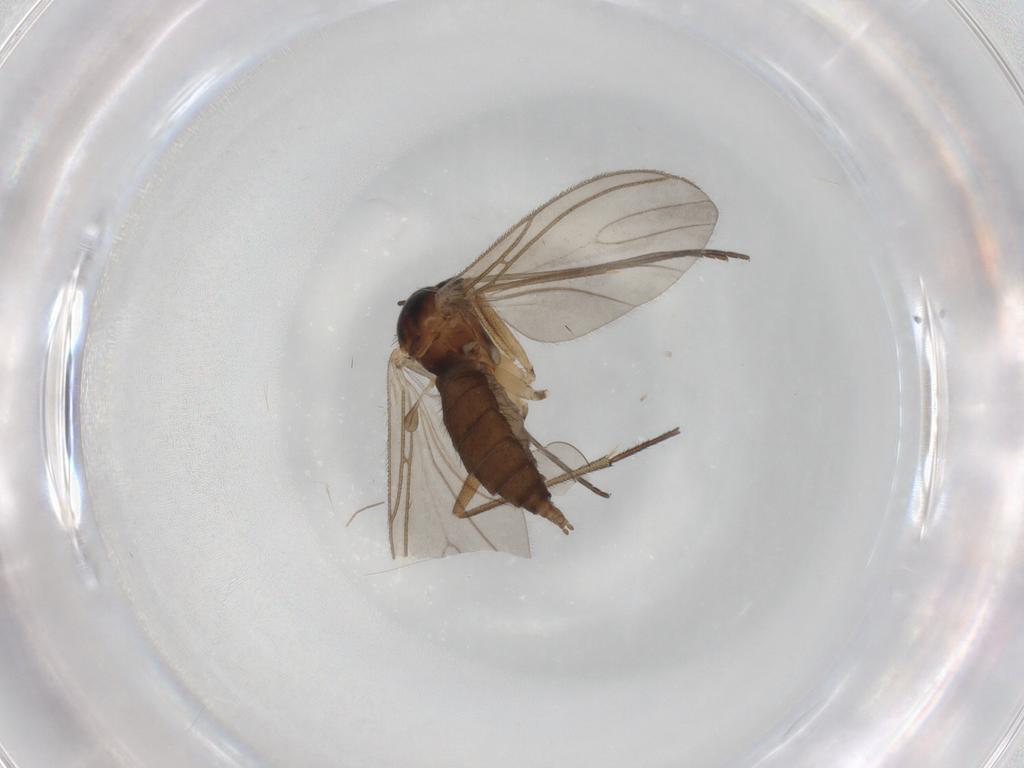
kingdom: Animalia
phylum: Arthropoda
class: Insecta
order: Diptera
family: Sciaridae
